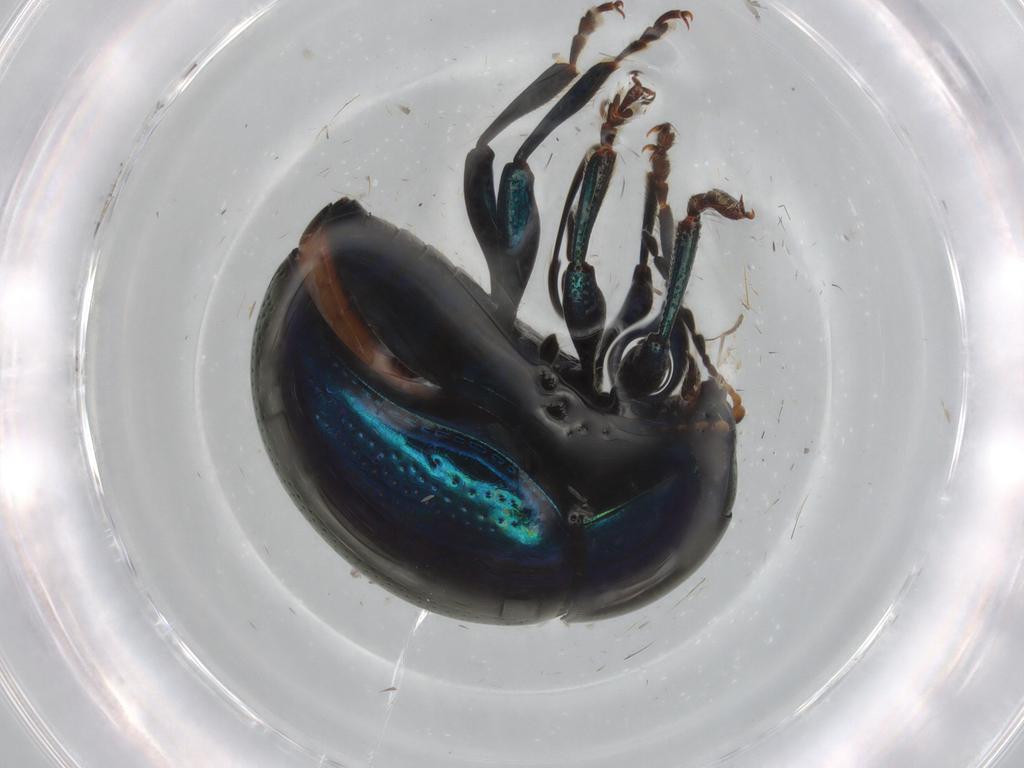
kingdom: Animalia
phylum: Arthropoda
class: Insecta
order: Coleoptera
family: Chrysomelidae
